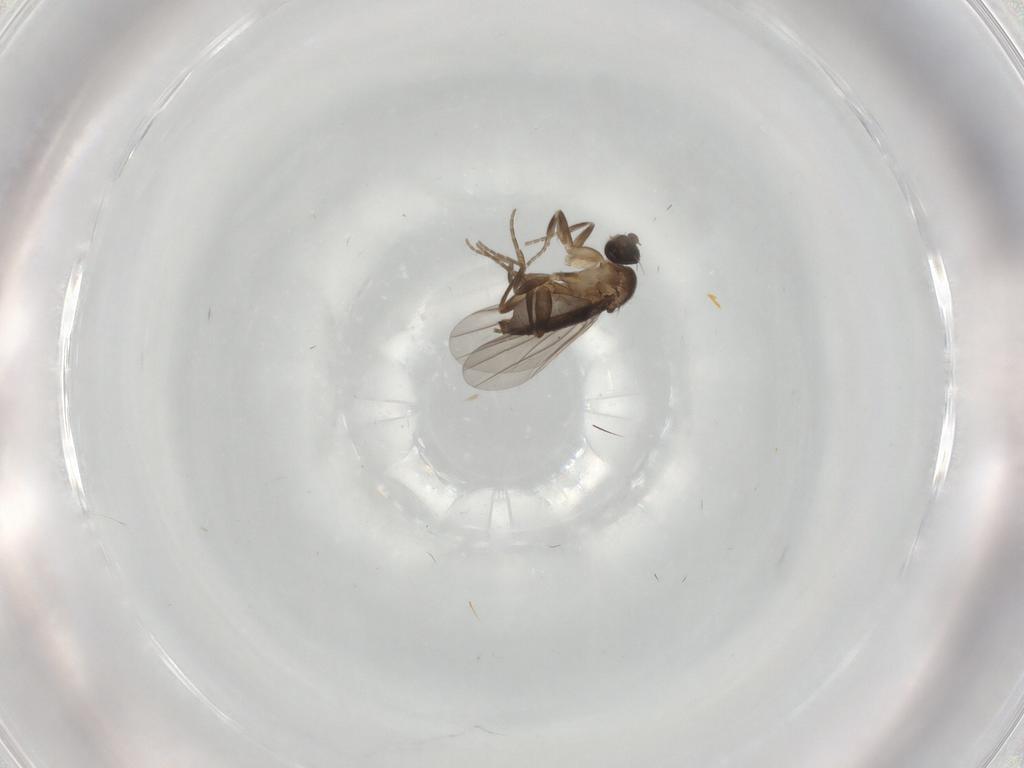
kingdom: Animalia
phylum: Arthropoda
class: Insecta
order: Diptera
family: Phoridae
